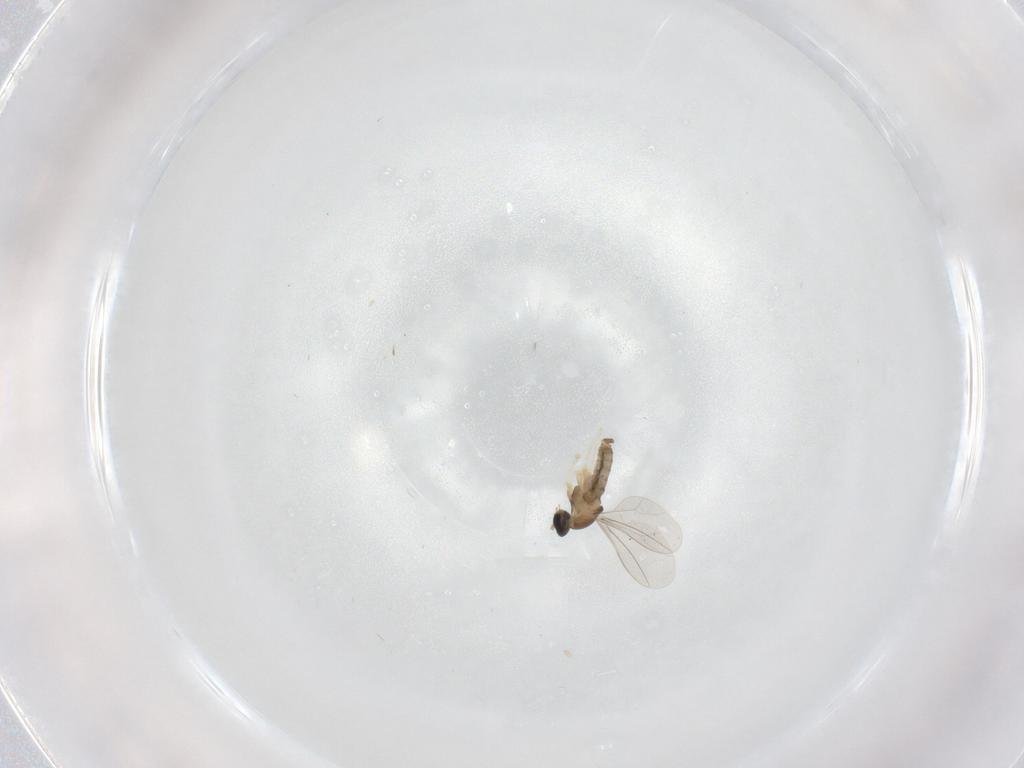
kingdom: Animalia
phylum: Arthropoda
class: Insecta
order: Diptera
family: Cecidomyiidae
